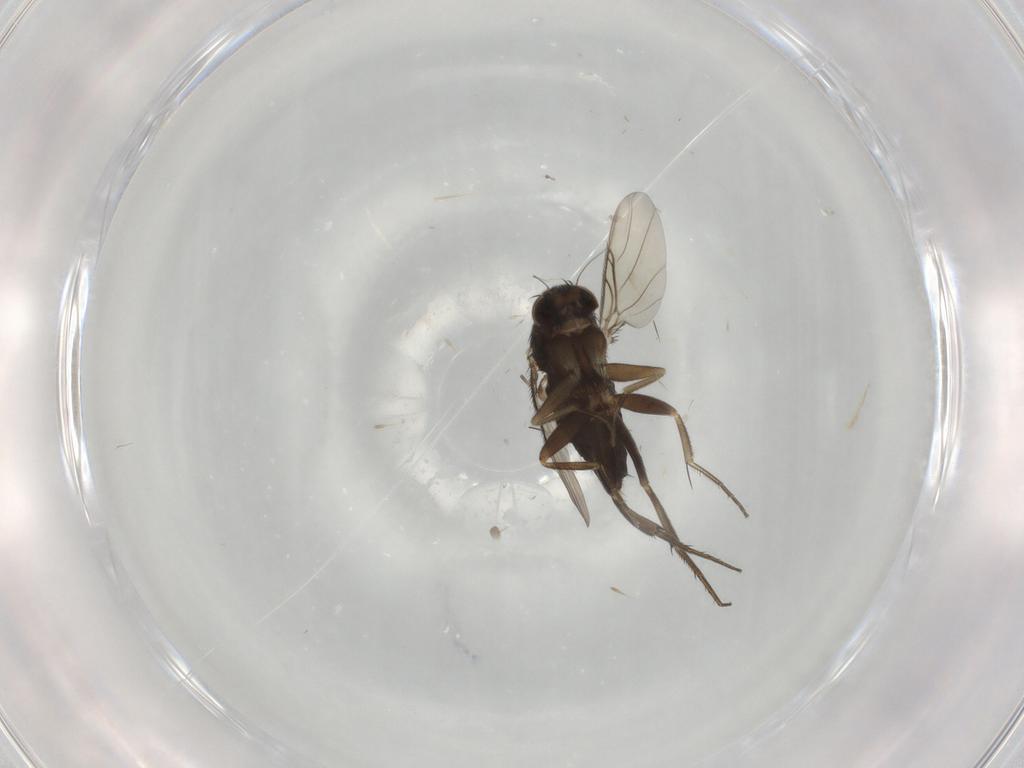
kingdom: Animalia
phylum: Arthropoda
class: Insecta
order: Diptera
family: Phoridae
